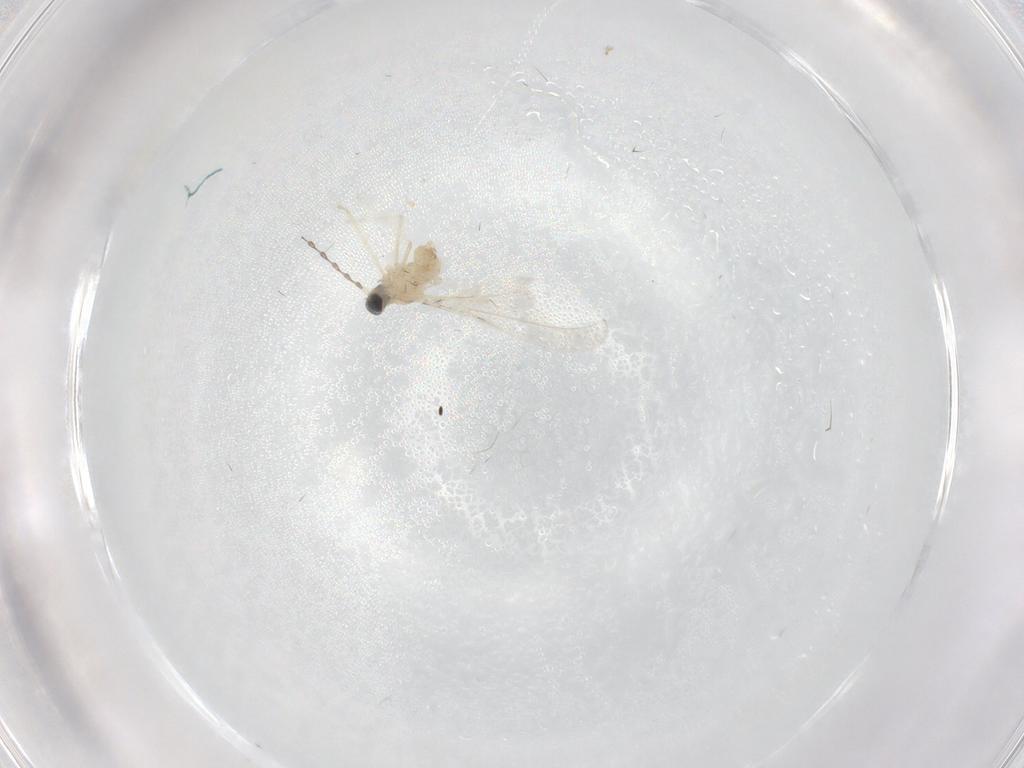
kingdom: Animalia
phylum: Arthropoda
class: Insecta
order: Diptera
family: Cecidomyiidae
